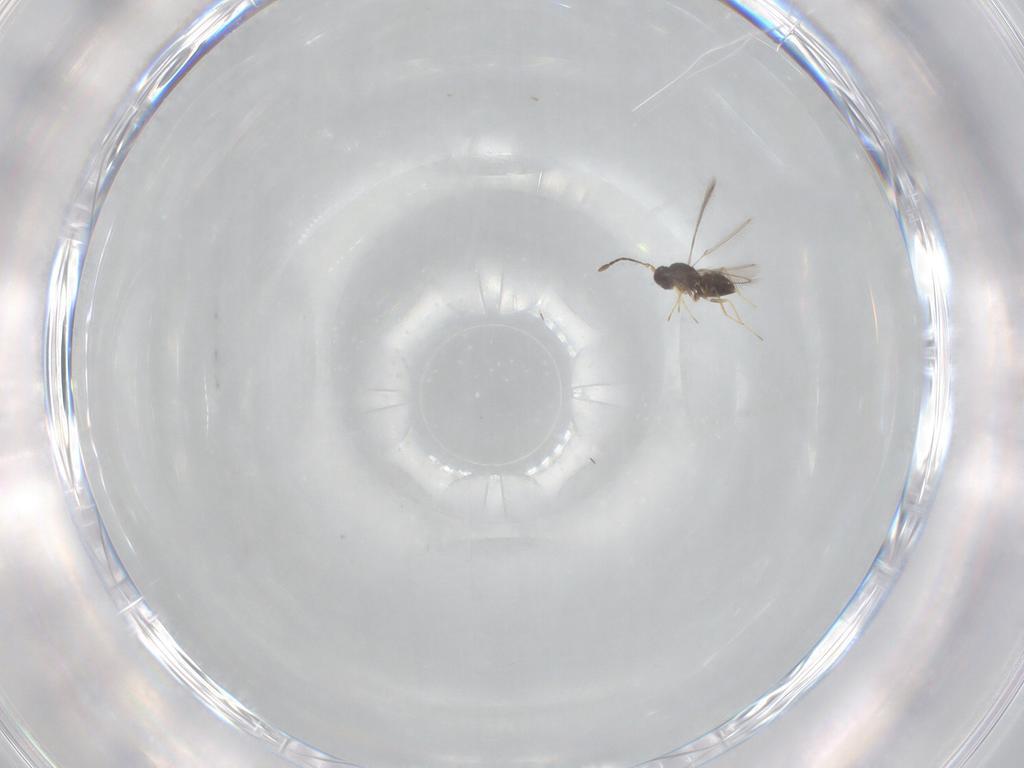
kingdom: Animalia
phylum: Arthropoda
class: Insecta
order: Hymenoptera
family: Mymaridae
